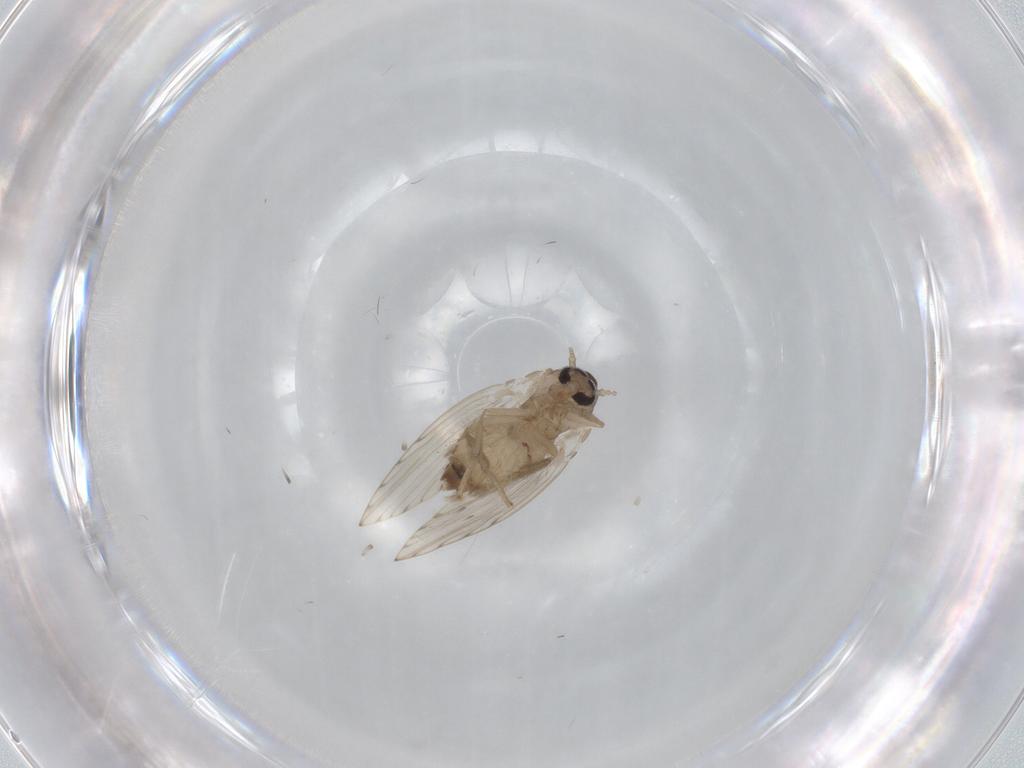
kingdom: Animalia
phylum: Arthropoda
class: Insecta
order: Diptera
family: Psychodidae
